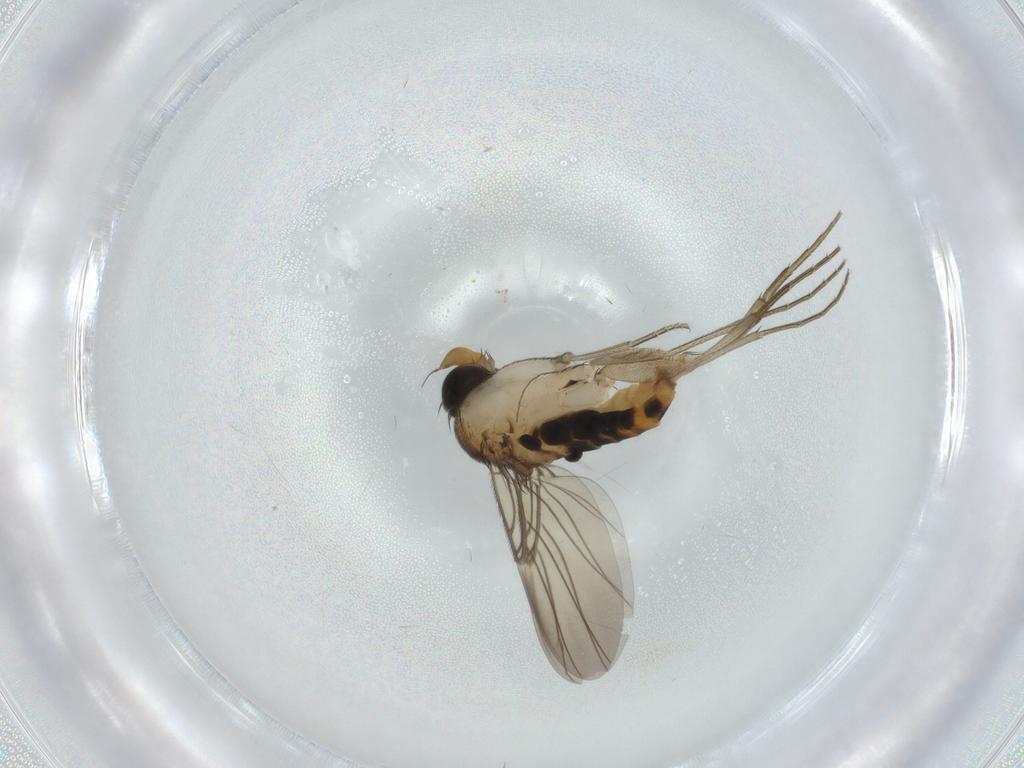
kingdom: Animalia
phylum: Arthropoda
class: Insecta
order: Diptera
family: Phoridae
